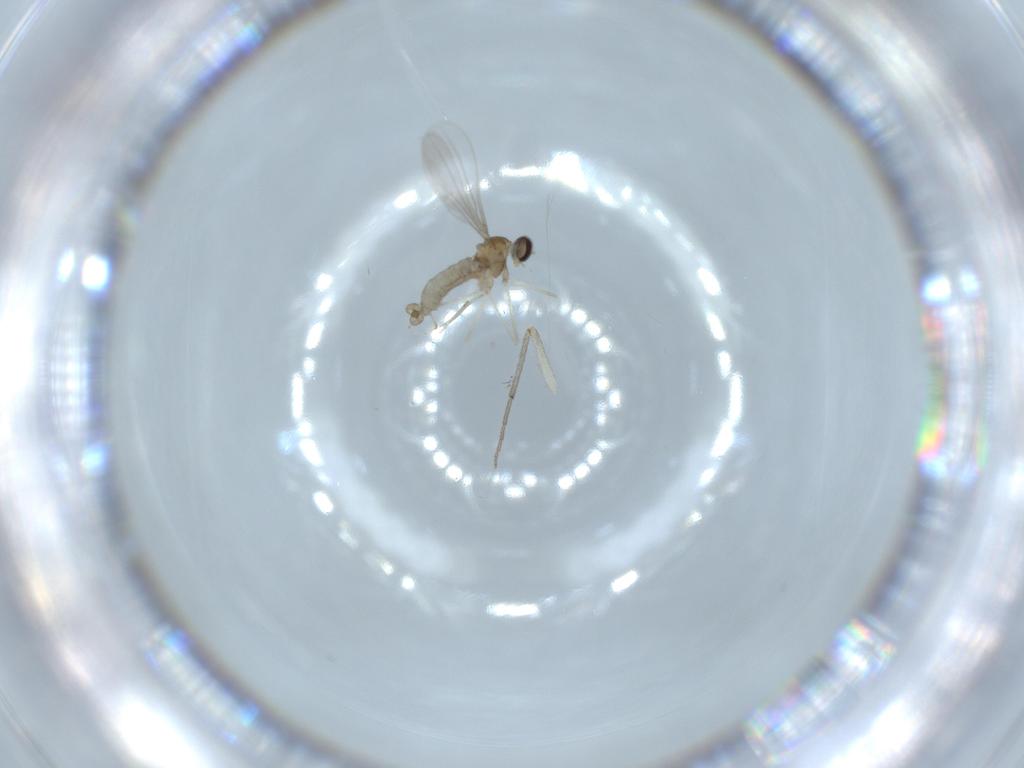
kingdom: Animalia
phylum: Arthropoda
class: Insecta
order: Diptera
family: Cecidomyiidae
